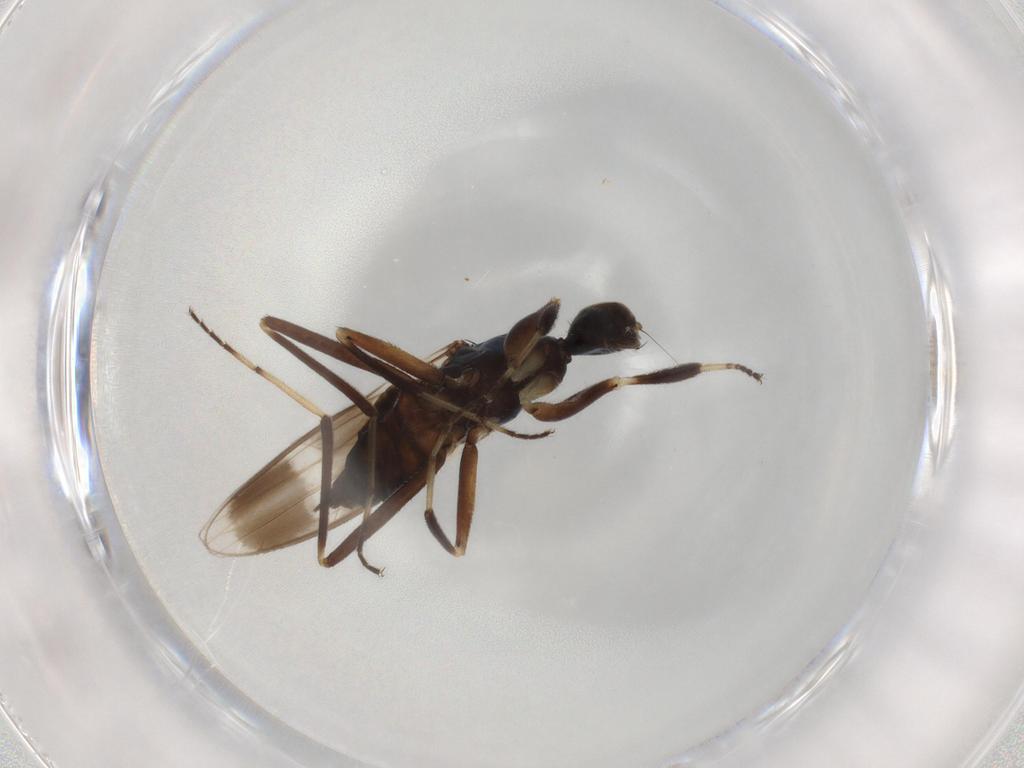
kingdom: Animalia
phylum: Arthropoda
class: Insecta
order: Diptera
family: Hybotidae
